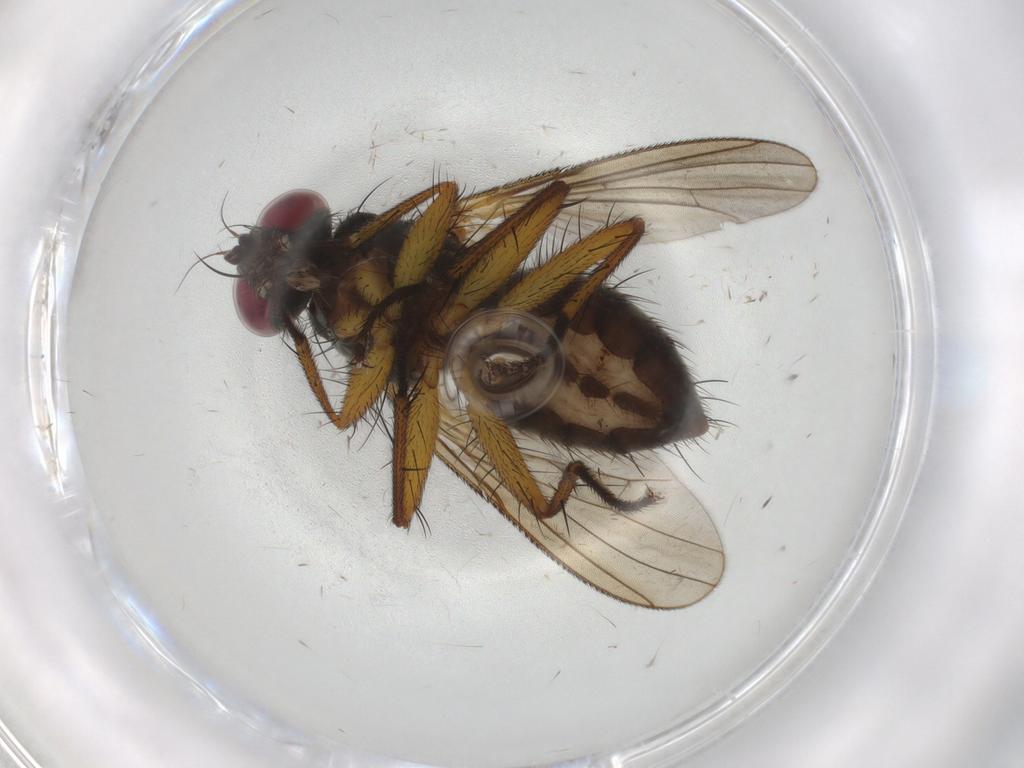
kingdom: Animalia
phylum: Arthropoda
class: Insecta
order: Diptera
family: Muscidae
